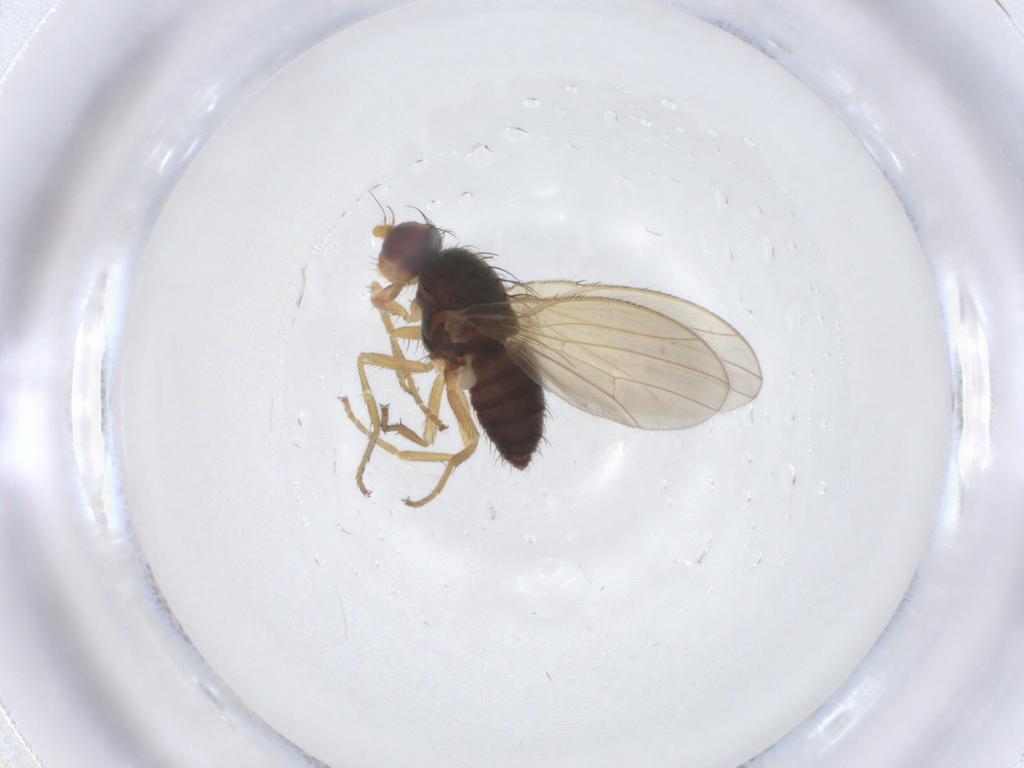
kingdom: Animalia
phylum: Arthropoda
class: Insecta
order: Diptera
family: Heleomyzidae
